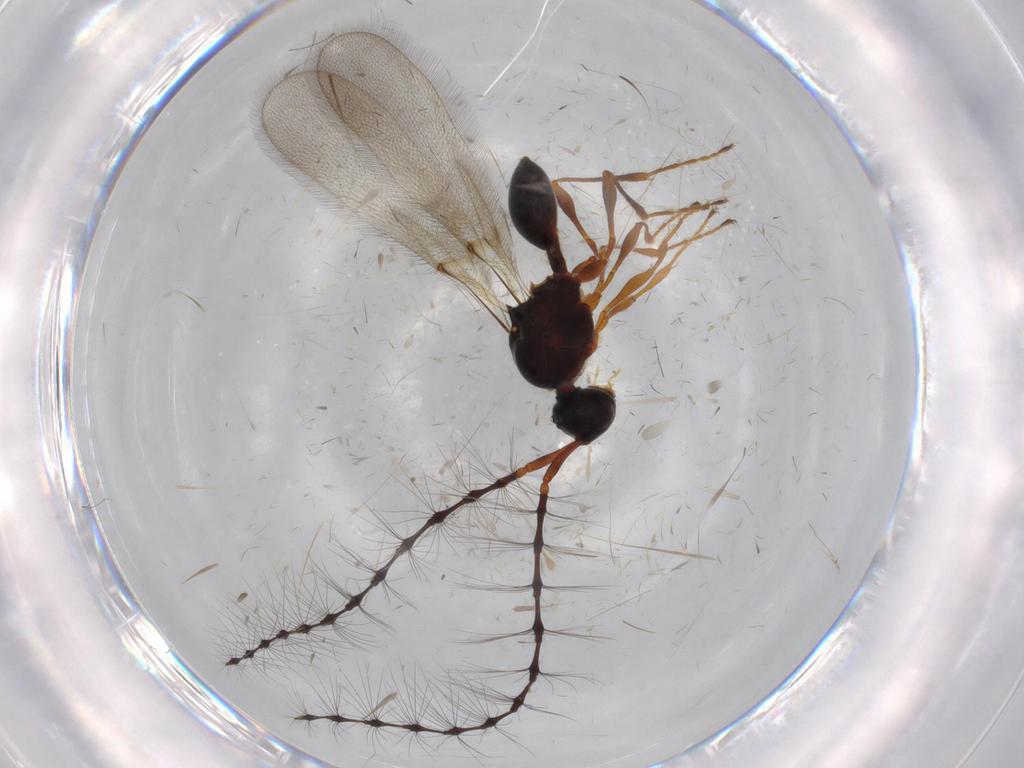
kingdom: Animalia
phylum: Arthropoda
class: Insecta
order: Hymenoptera
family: Diapriidae
